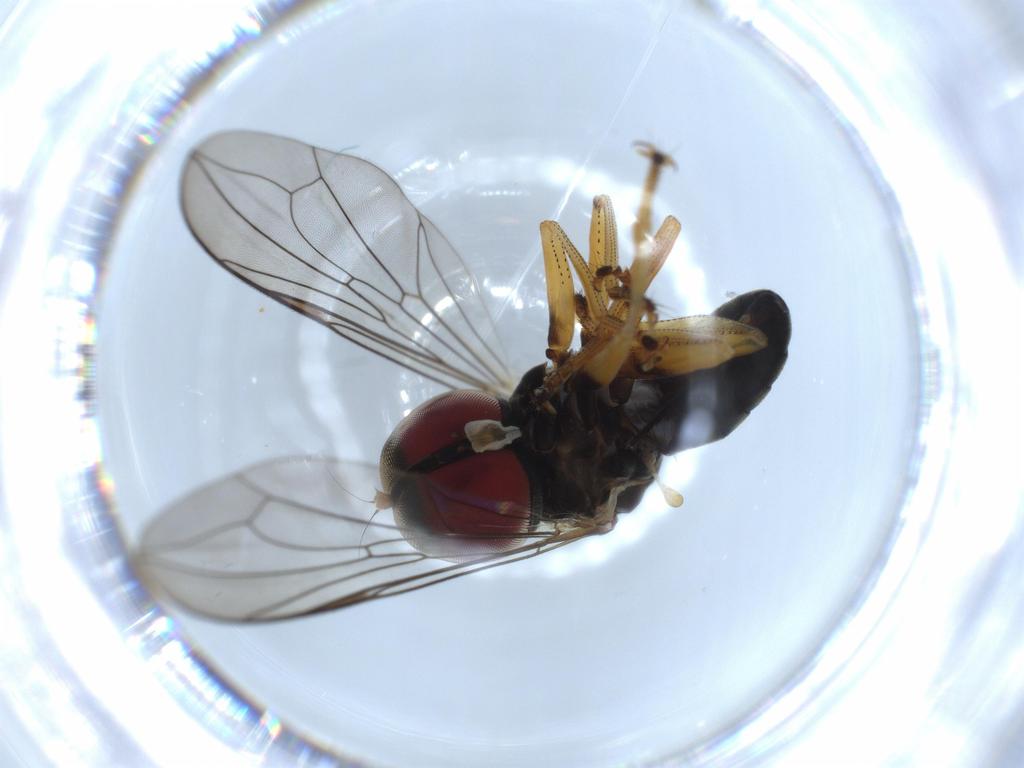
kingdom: Animalia
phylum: Arthropoda
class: Insecta
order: Diptera
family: Sciaridae
